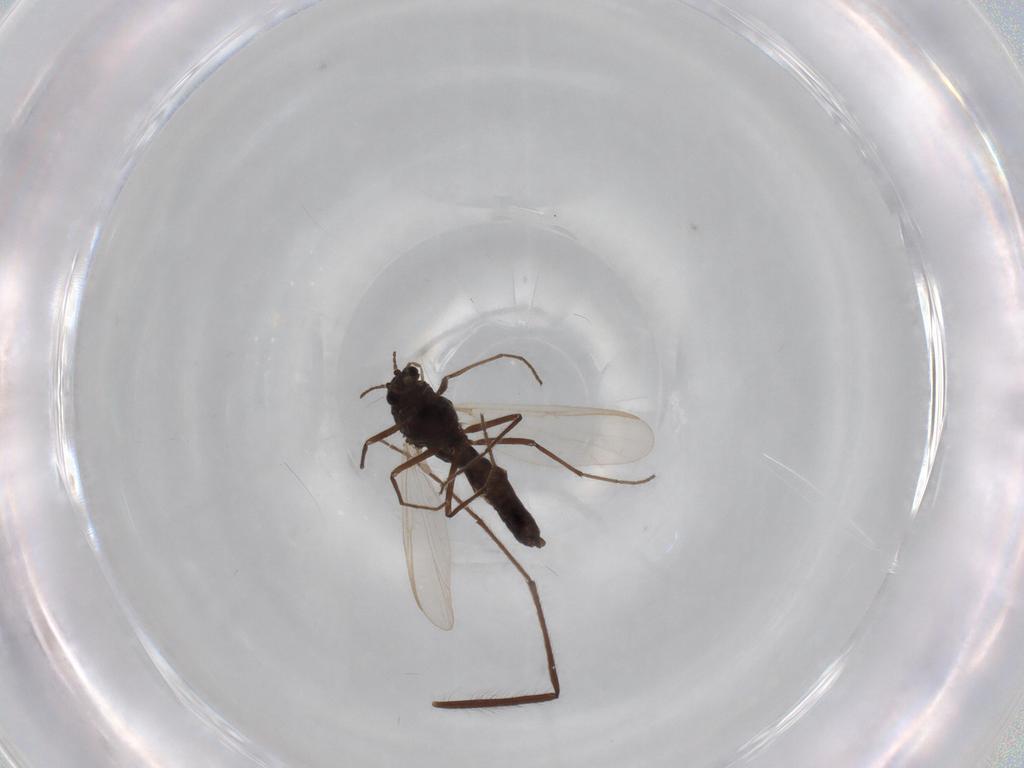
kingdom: Animalia
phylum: Arthropoda
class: Insecta
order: Diptera
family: Chironomidae
